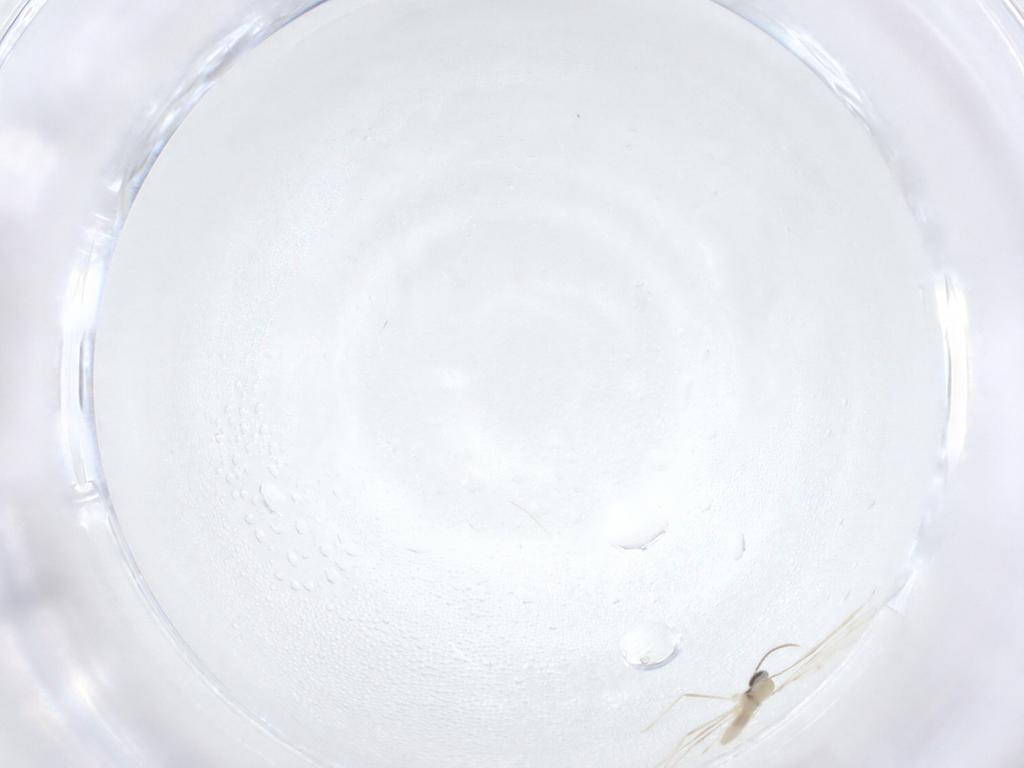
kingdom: Animalia
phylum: Arthropoda
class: Insecta
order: Diptera
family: Cecidomyiidae
